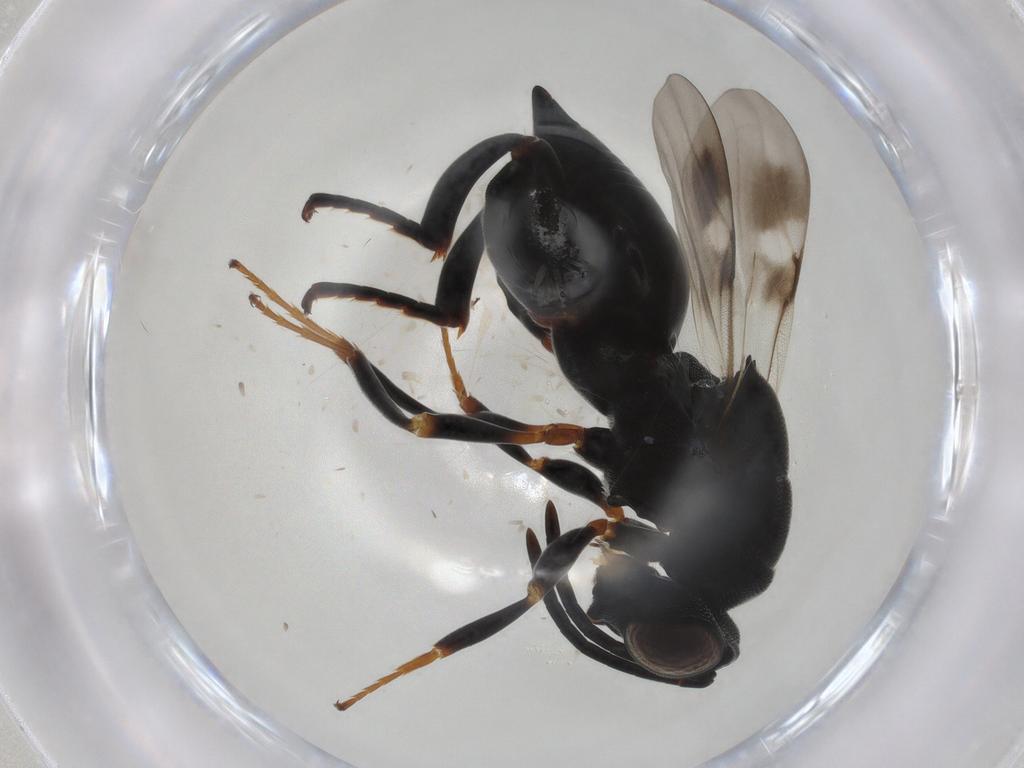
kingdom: Animalia
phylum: Arthropoda
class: Insecta
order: Hymenoptera
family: Chalcididae
